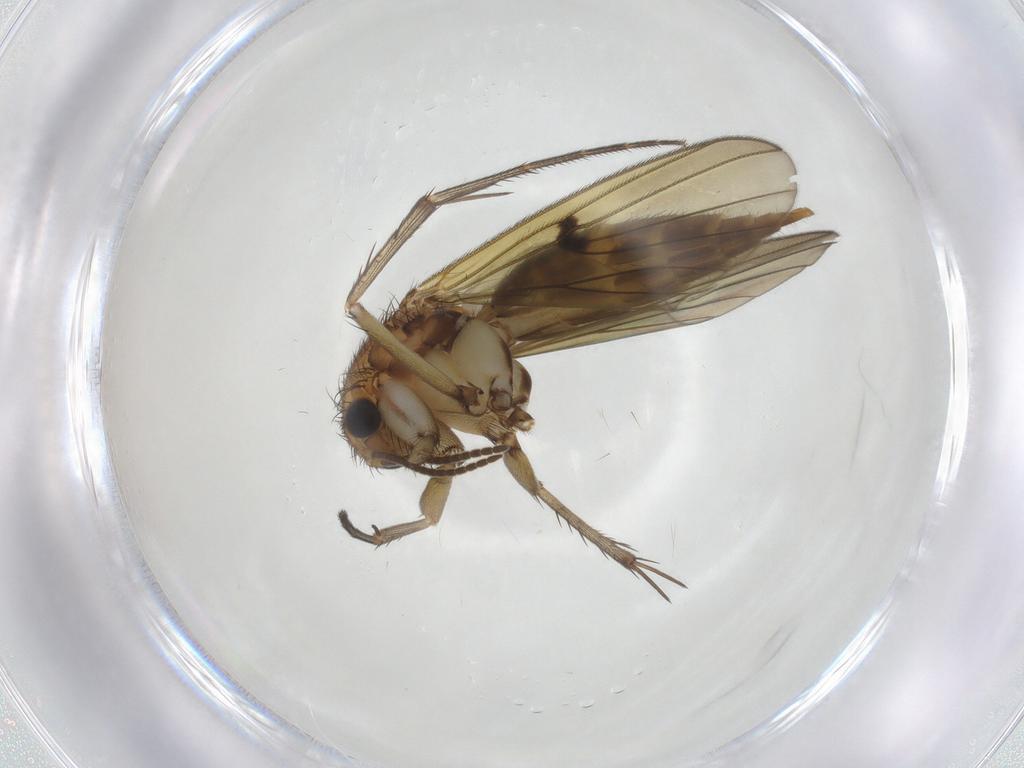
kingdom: Animalia
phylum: Arthropoda
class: Insecta
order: Diptera
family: Mycetophilidae
